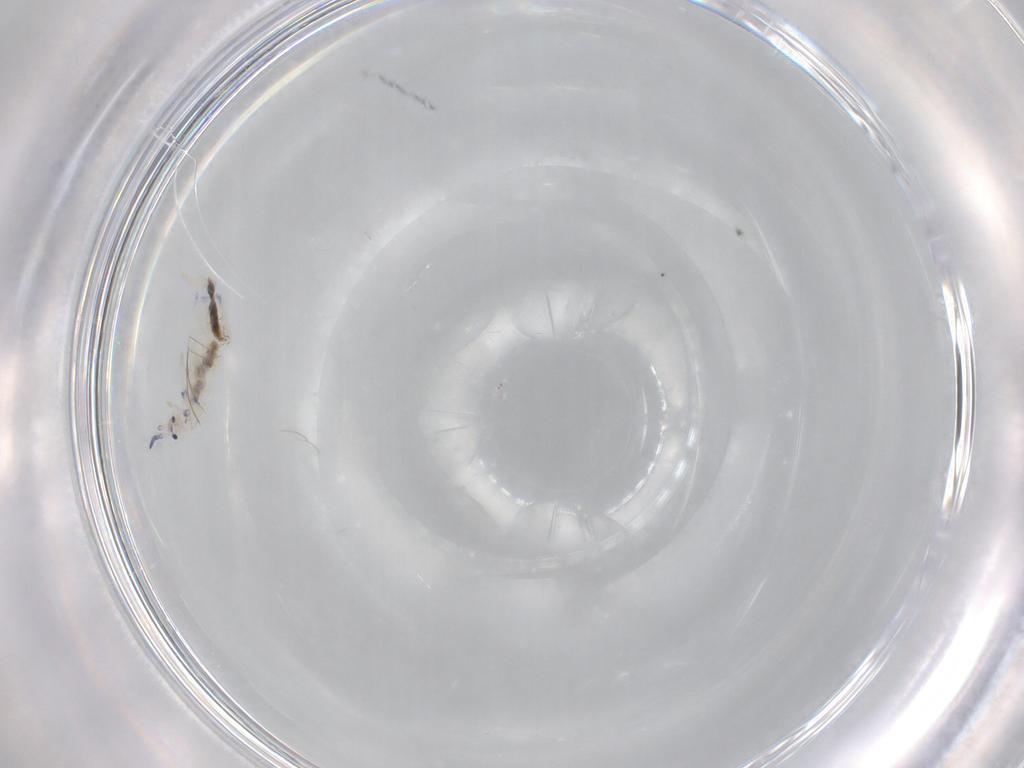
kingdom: Animalia
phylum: Arthropoda
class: Collembola
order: Entomobryomorpha
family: Entomobryidae
